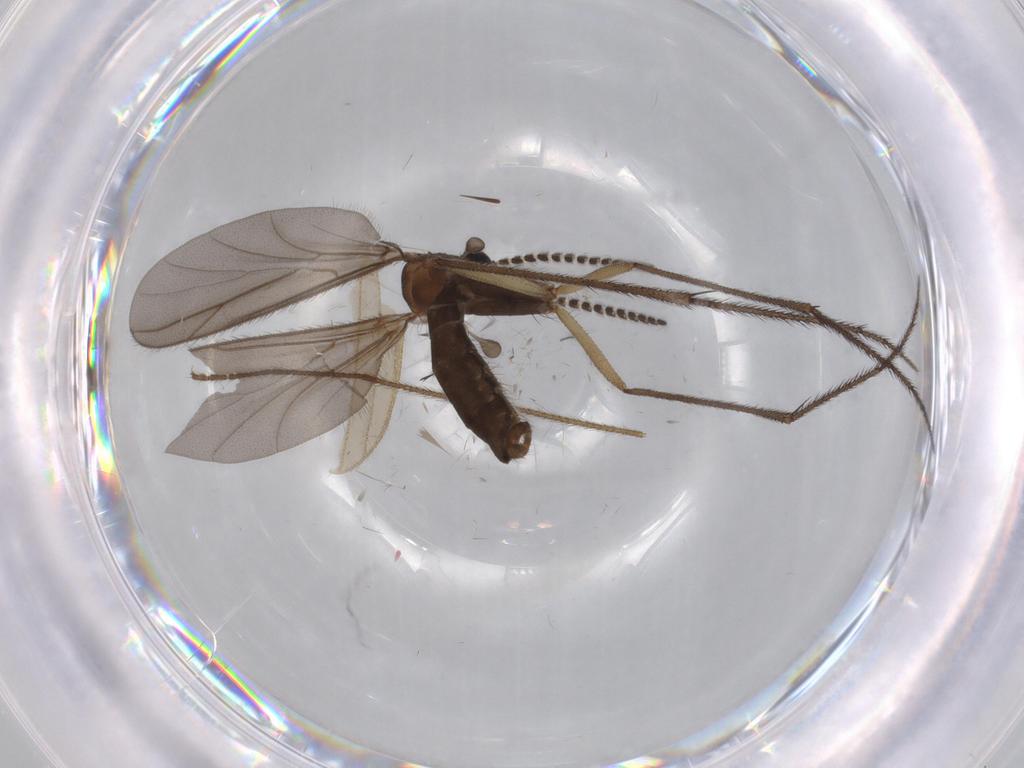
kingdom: Animalia
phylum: Arthropoda
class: Insecta
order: Diptera
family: Ditomyiidae
